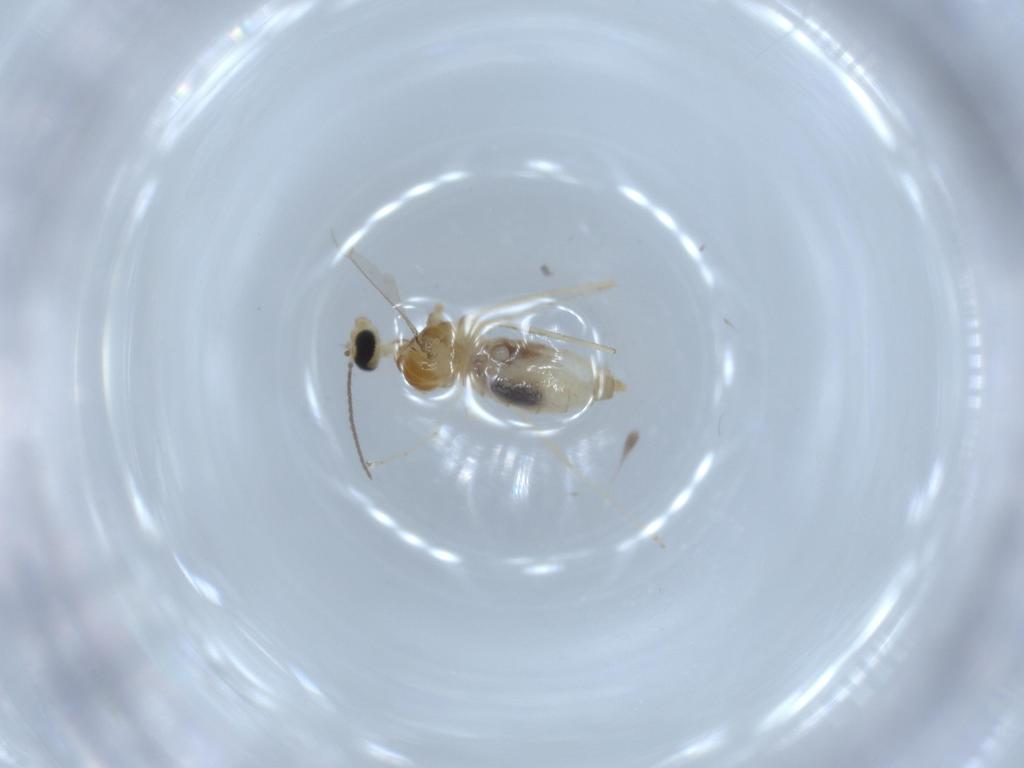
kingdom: Animalia
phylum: Arthropoda
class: Insecta
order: Diptera
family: Cecidomyiidae
